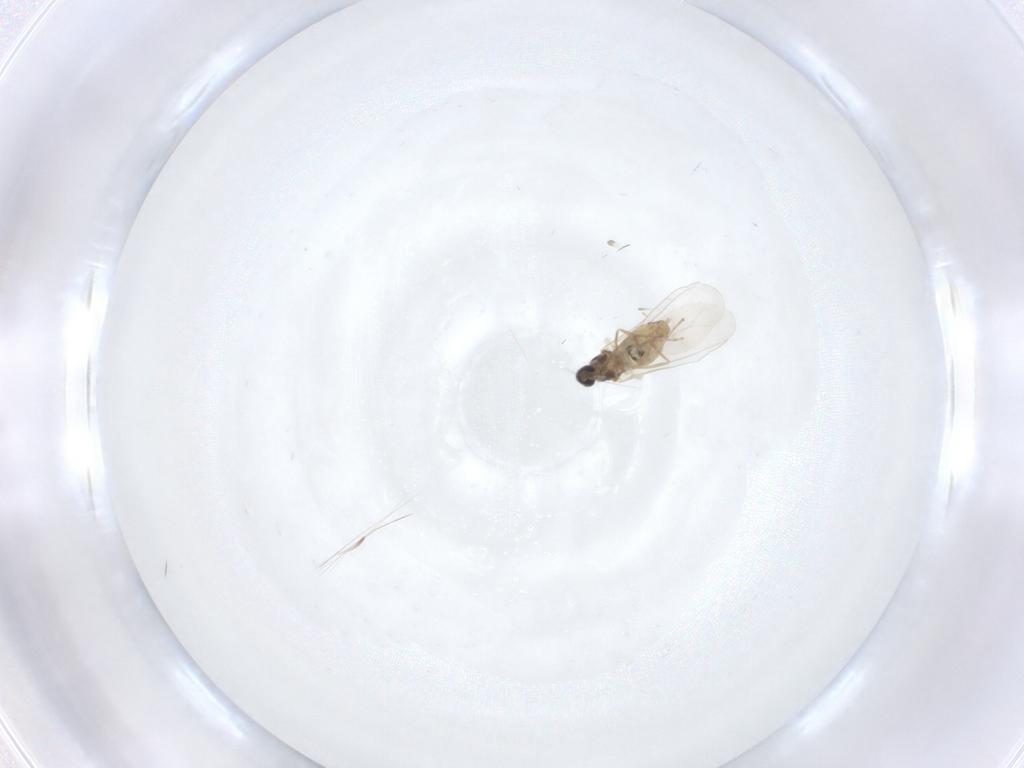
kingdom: Animalia
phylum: Arthropoda
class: Insecta
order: Diptera
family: Cecidomyiidae
